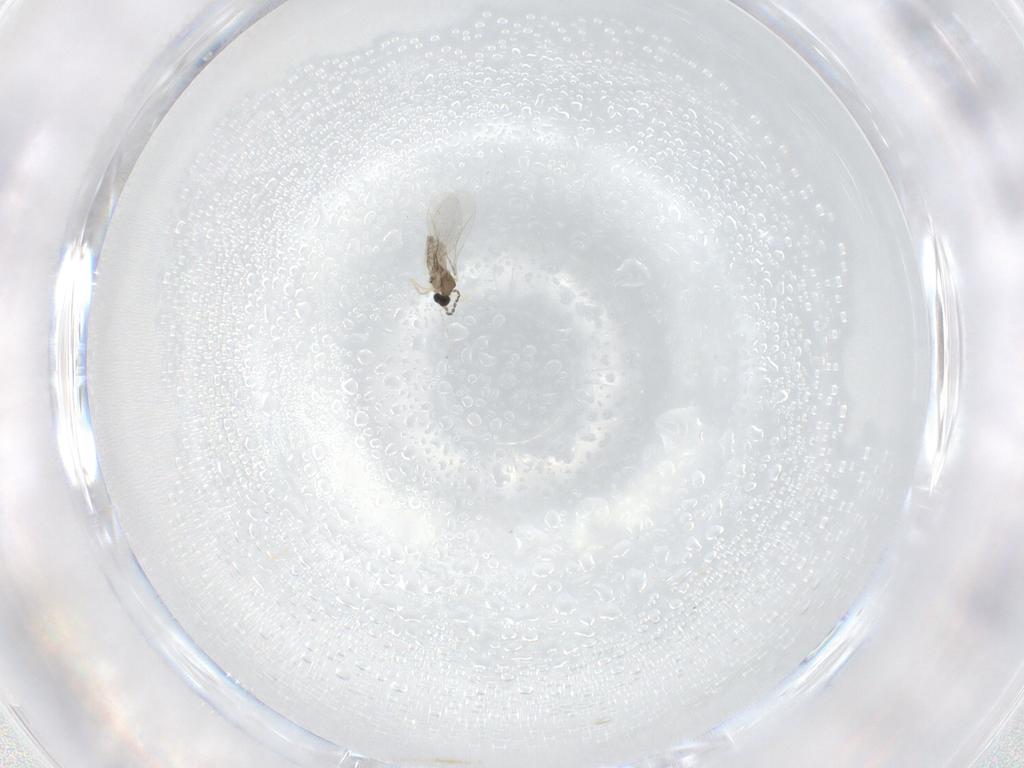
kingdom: Animalia
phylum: Arthropoda
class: Insecta
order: Diptera
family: Cecidomyiidae
